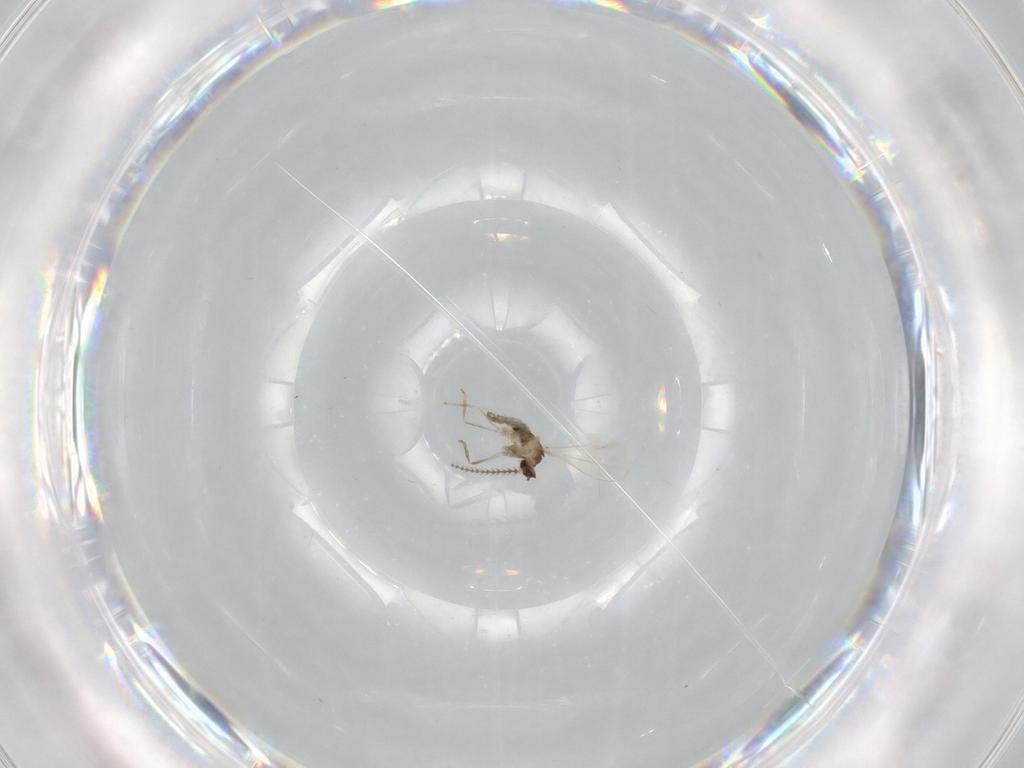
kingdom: Animalia
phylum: Arthropoda
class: Insecta
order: Diptera
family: Cecidomyiidae
